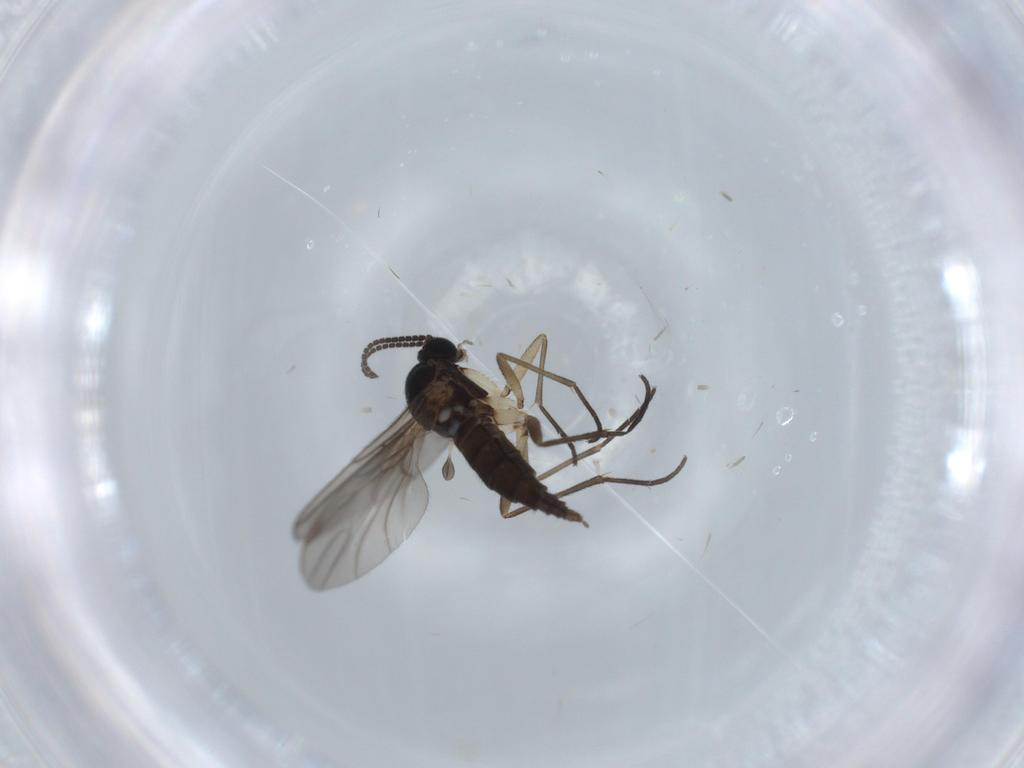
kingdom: Animalia
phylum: Arthropoda
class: Insecta
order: Diptera
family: Sciaridae
